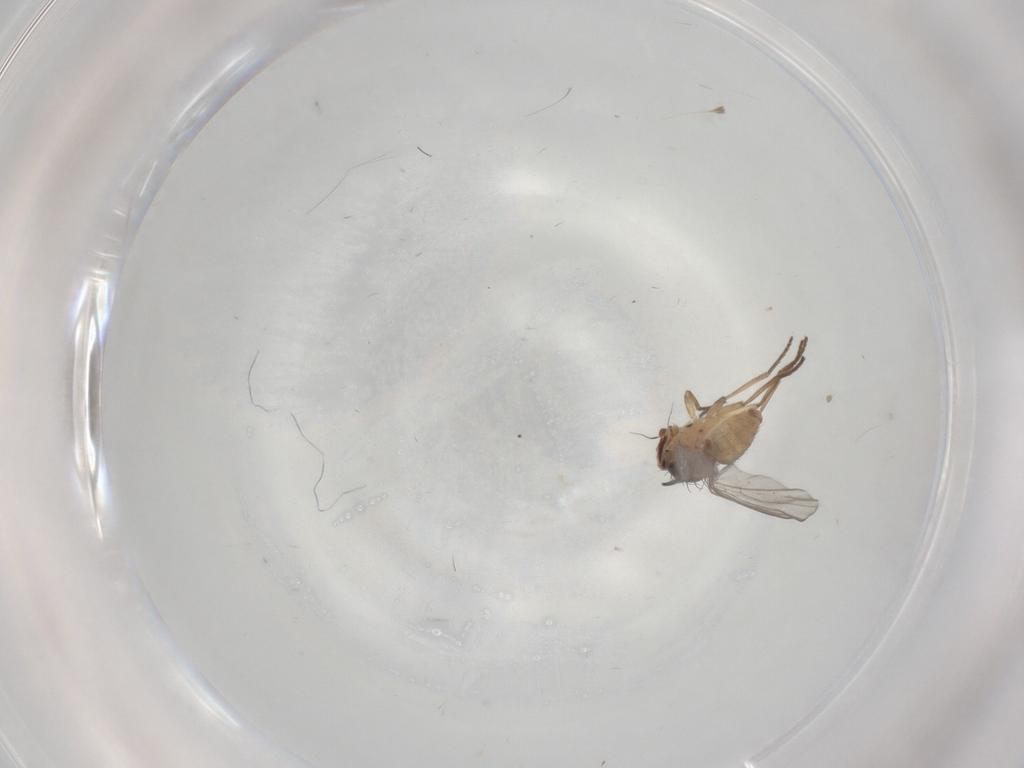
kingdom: Animalia
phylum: Arthropoda
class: Insecta
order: Diptera
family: Agromyzidae
